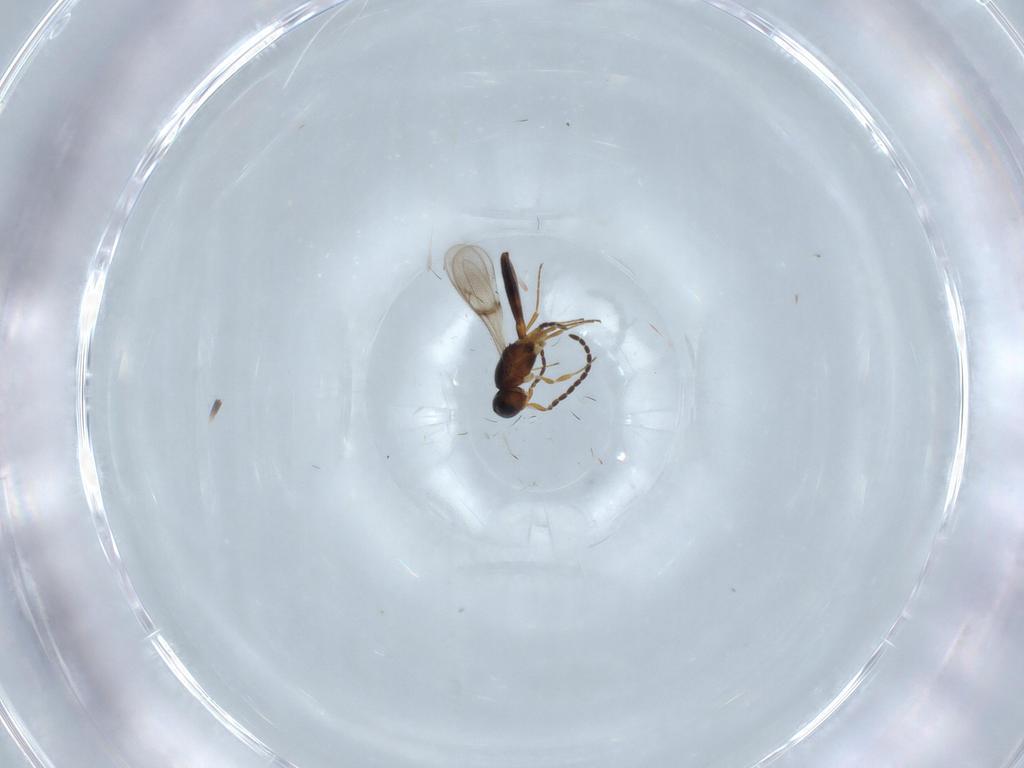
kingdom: Animalia
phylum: Arthropoda
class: Insecta
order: Hymenoptera
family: Scelionidae
